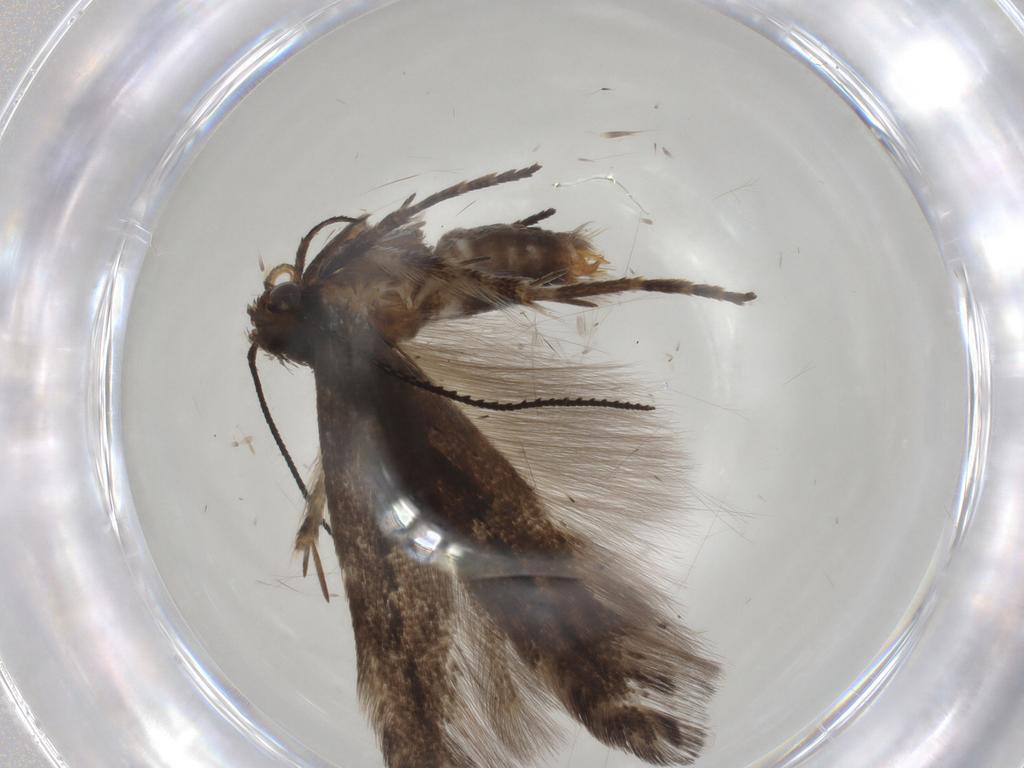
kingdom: Animalia
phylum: Arthropoda
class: Insecta
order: Lepidoptera
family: Gelechiidae
